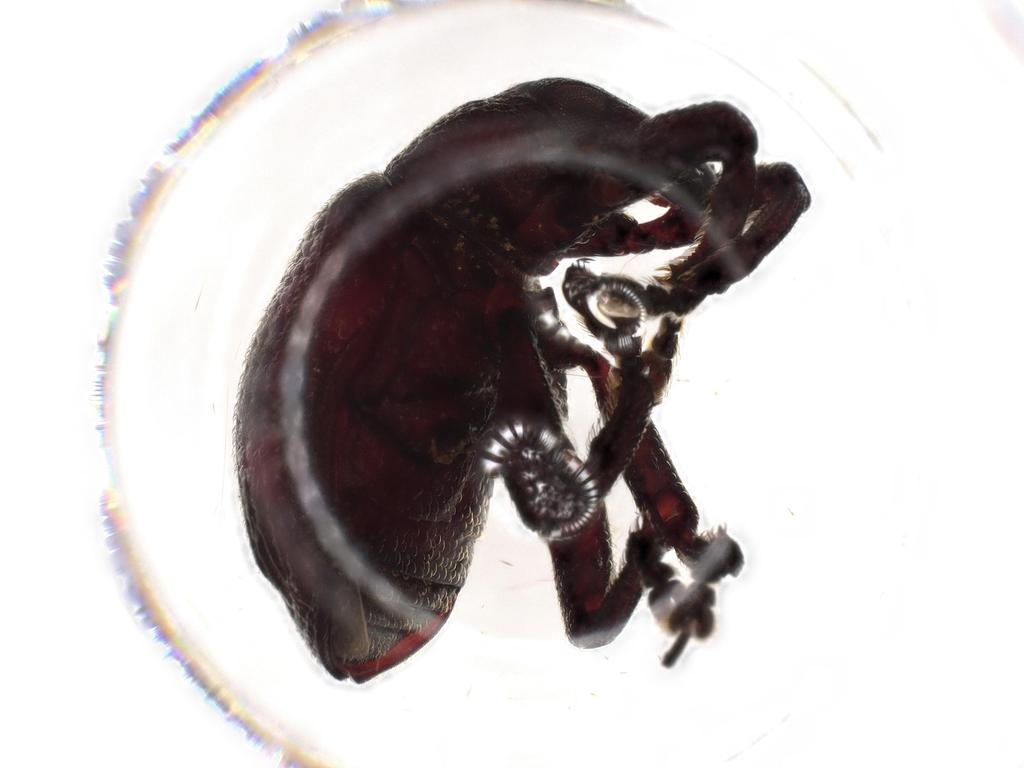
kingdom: Animalia
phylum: Arthropoda
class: Insecta
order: Coleoptera
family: Curculionidae
